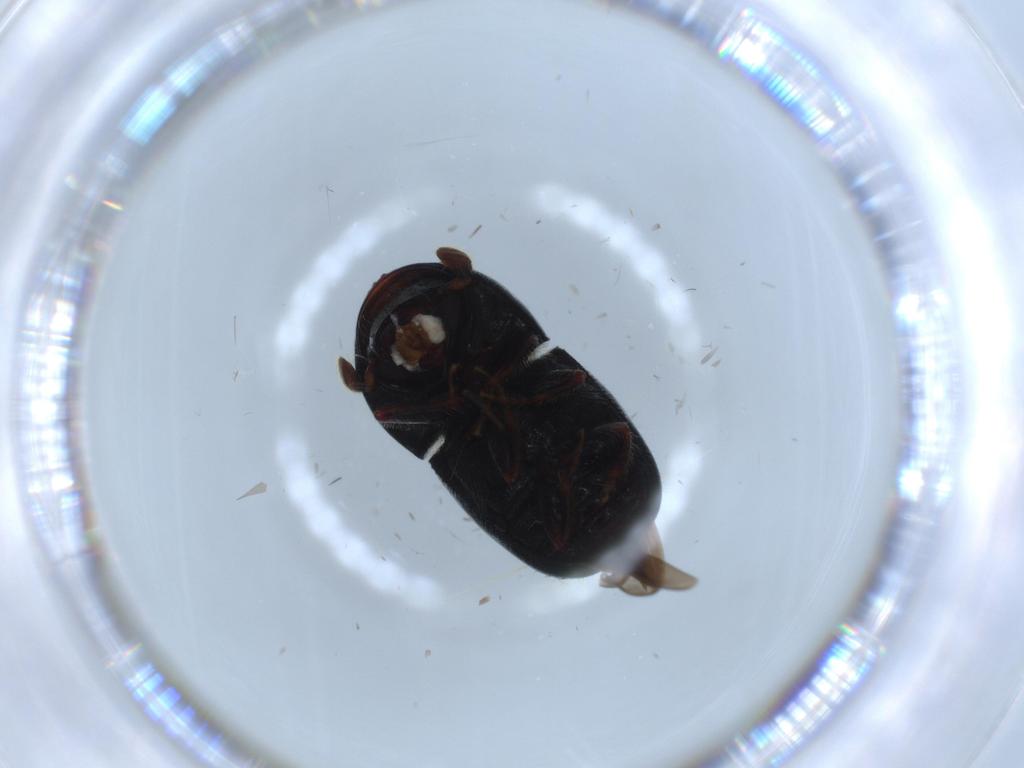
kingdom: Animalia
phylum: Arthropoda
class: Insecta
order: Coleoptera
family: Curculionidae
